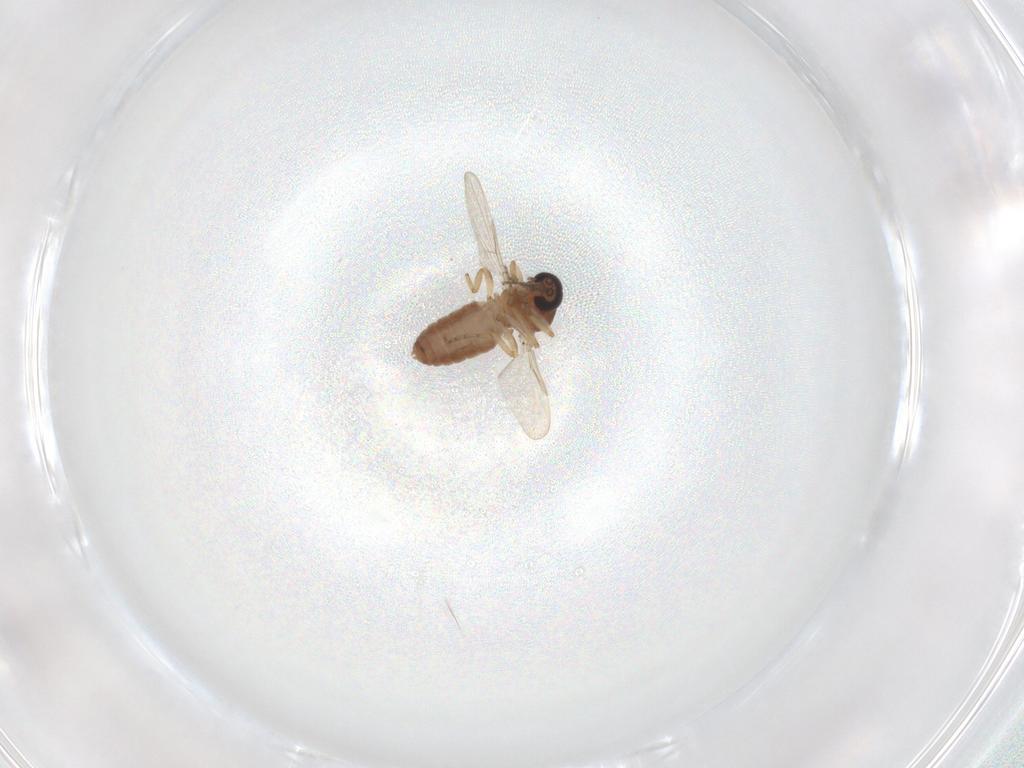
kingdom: Animalia
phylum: Arthropoda
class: Insecta
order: Diptera
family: Ceratopogonidae
